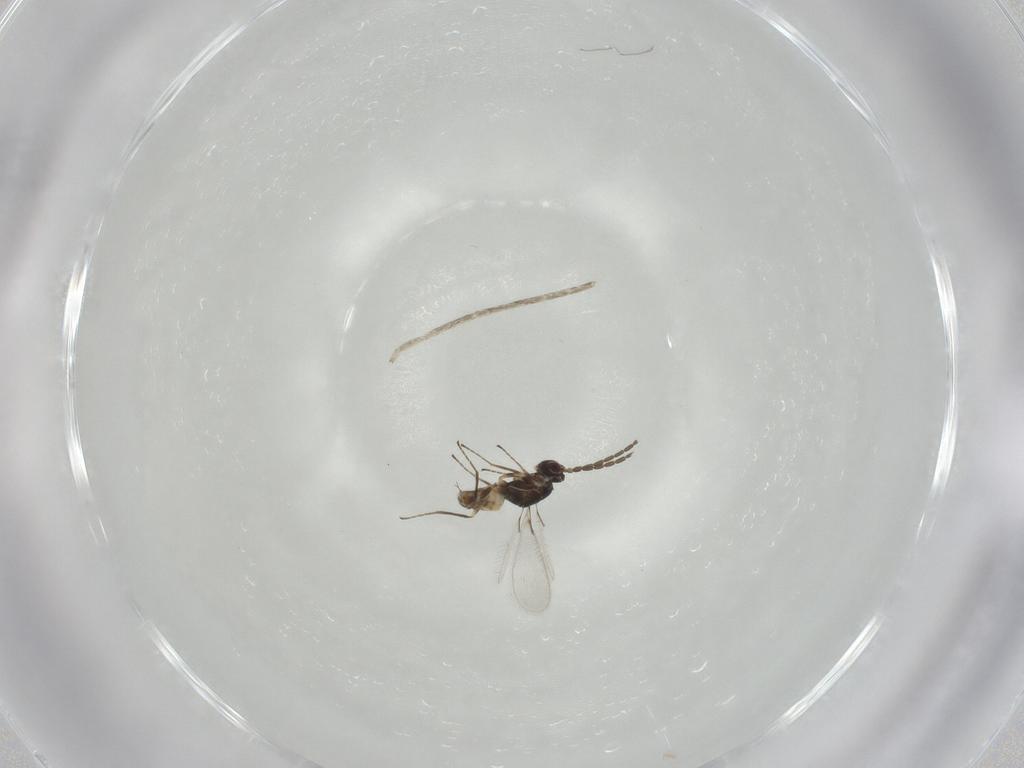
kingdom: Animalia
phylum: Arthropoda
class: Insecta
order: Hymenoptera
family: Mymaridae
